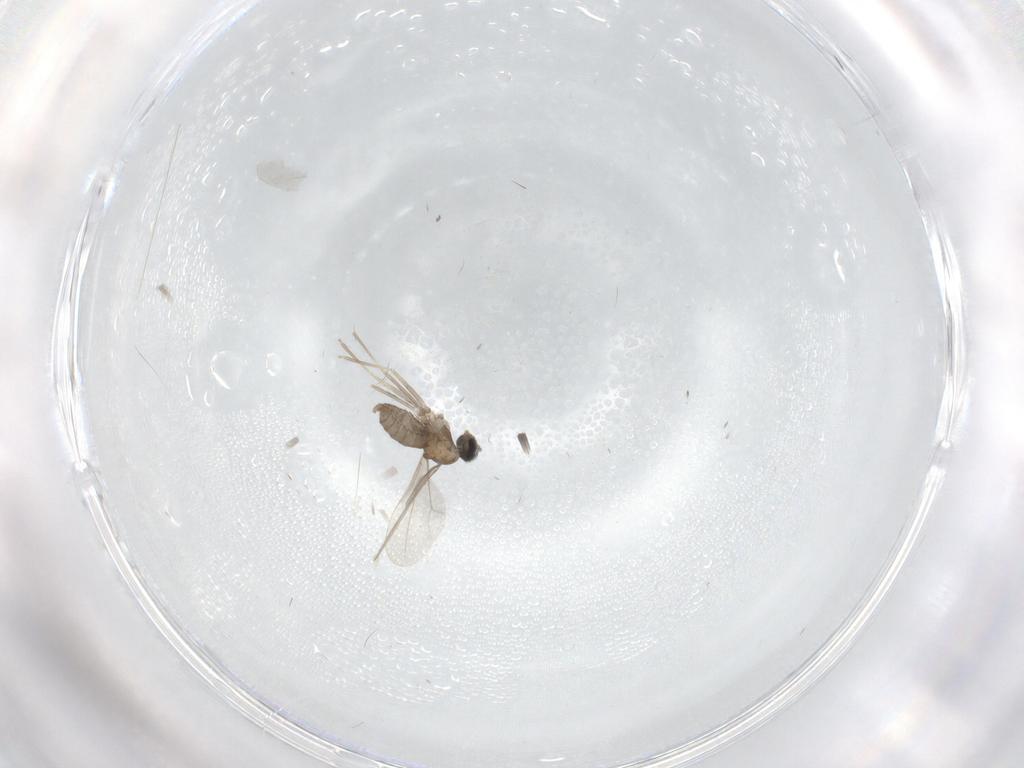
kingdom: Animalia
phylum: Arthropoda
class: Insecta
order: Diptera
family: Cecidomyiidae
